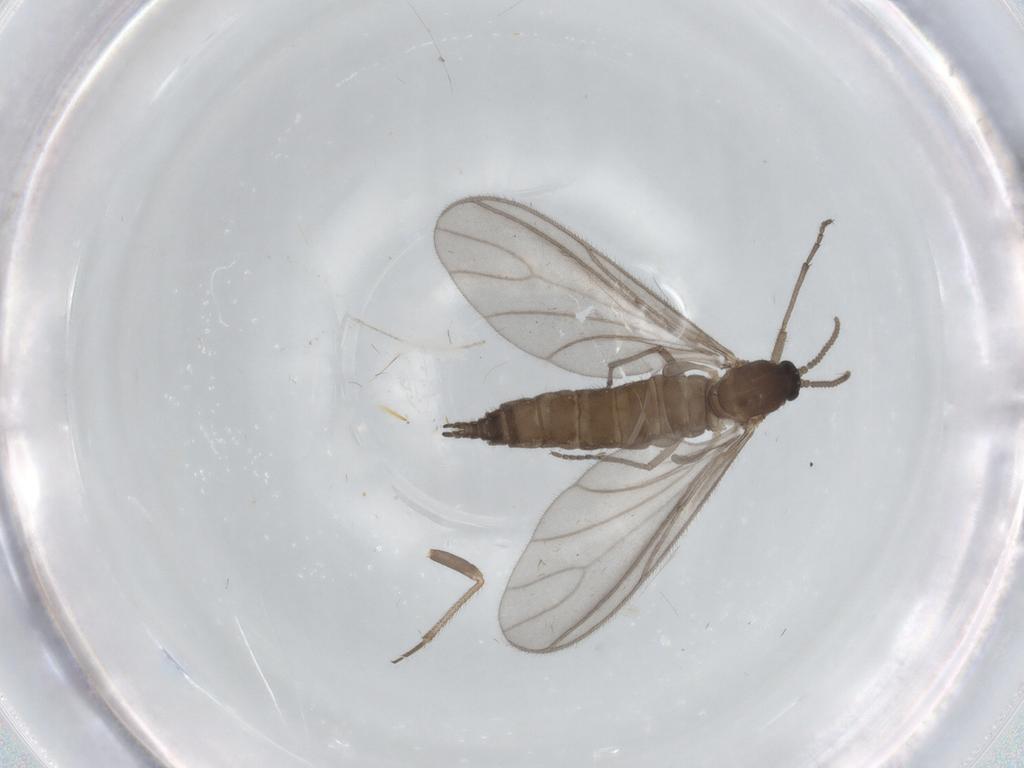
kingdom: Animalia
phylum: Arthropoda
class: Insecta
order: Diptera
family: Sciaridae
